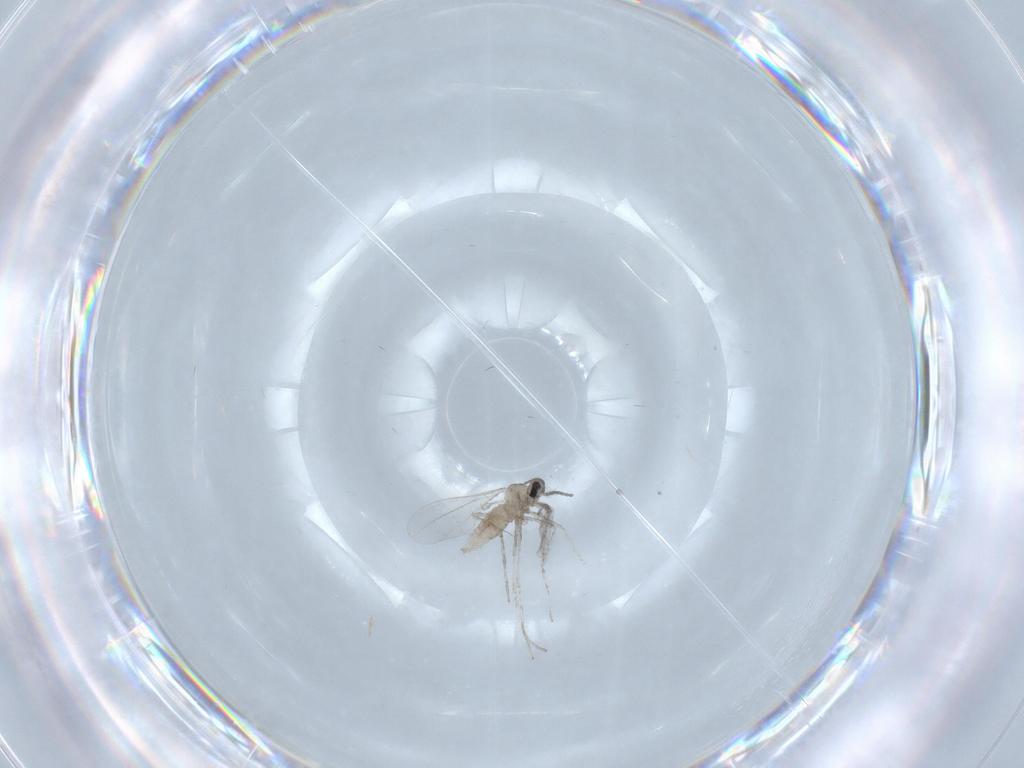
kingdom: Animalia
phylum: Arthropoda
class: Insecta
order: Diptera
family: Cecidomyiidae
